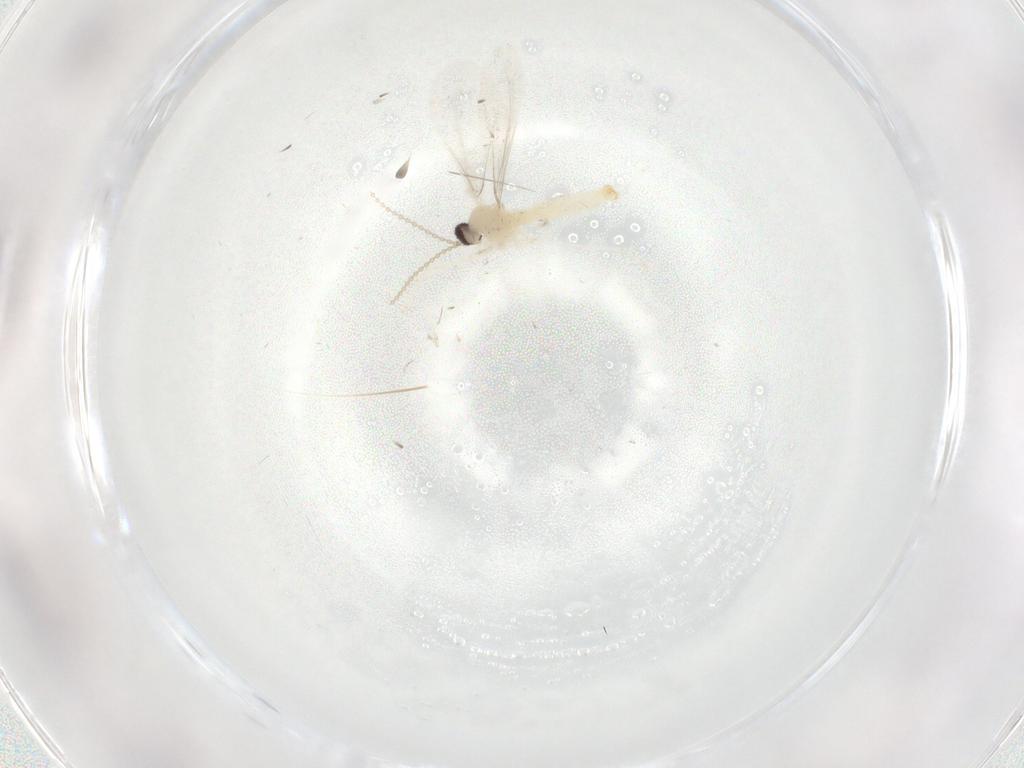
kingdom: Animalia
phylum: Arthropoda
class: Insecta
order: Diptera
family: Cecidomyiidae
